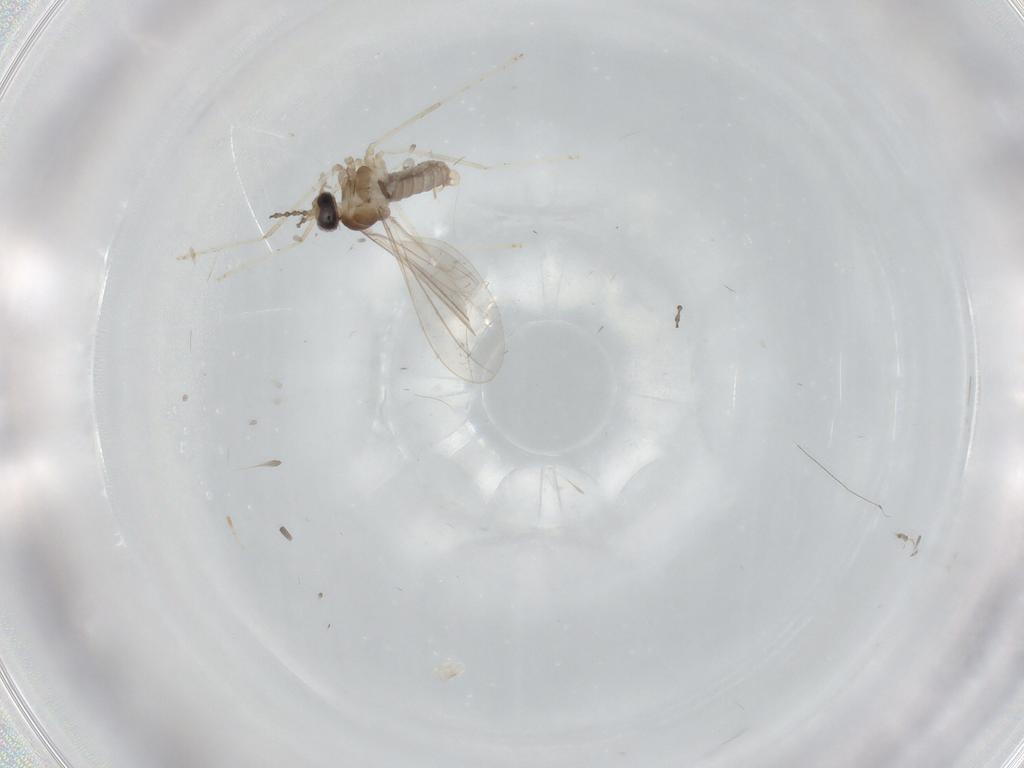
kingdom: Animalia
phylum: Arthropoda
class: Insecta
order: Diptera
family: Cecidomyiidae
